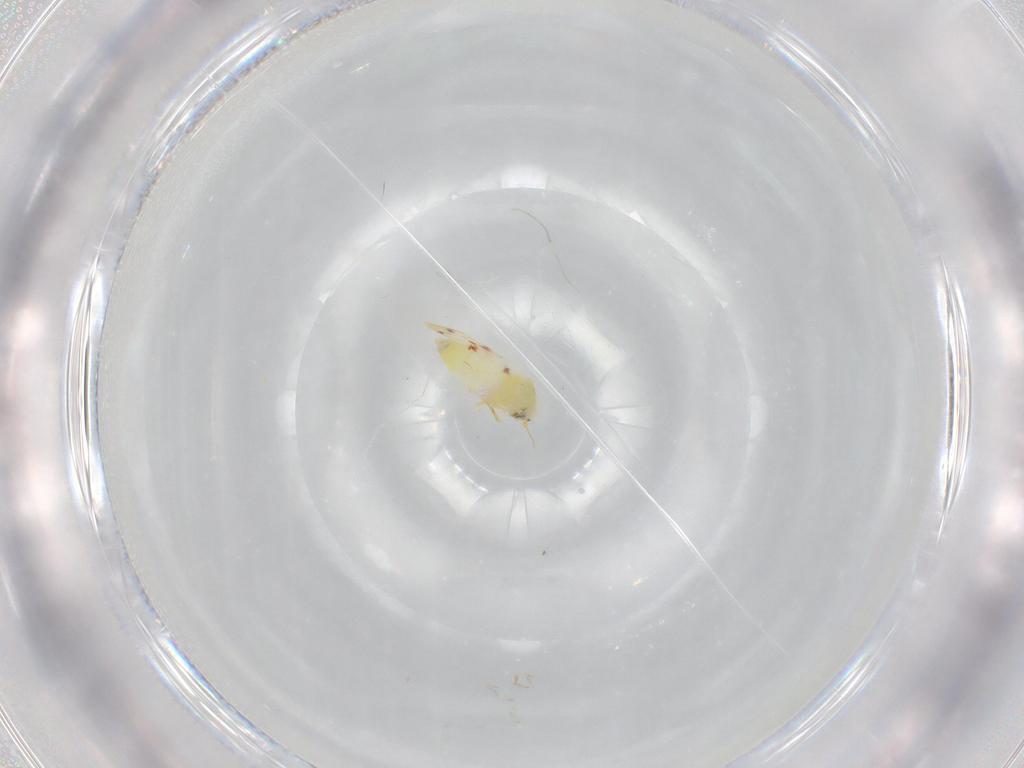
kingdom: Animalia
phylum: Arthropoda
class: Insecta
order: Hemiptera
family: Aleyrodidae
